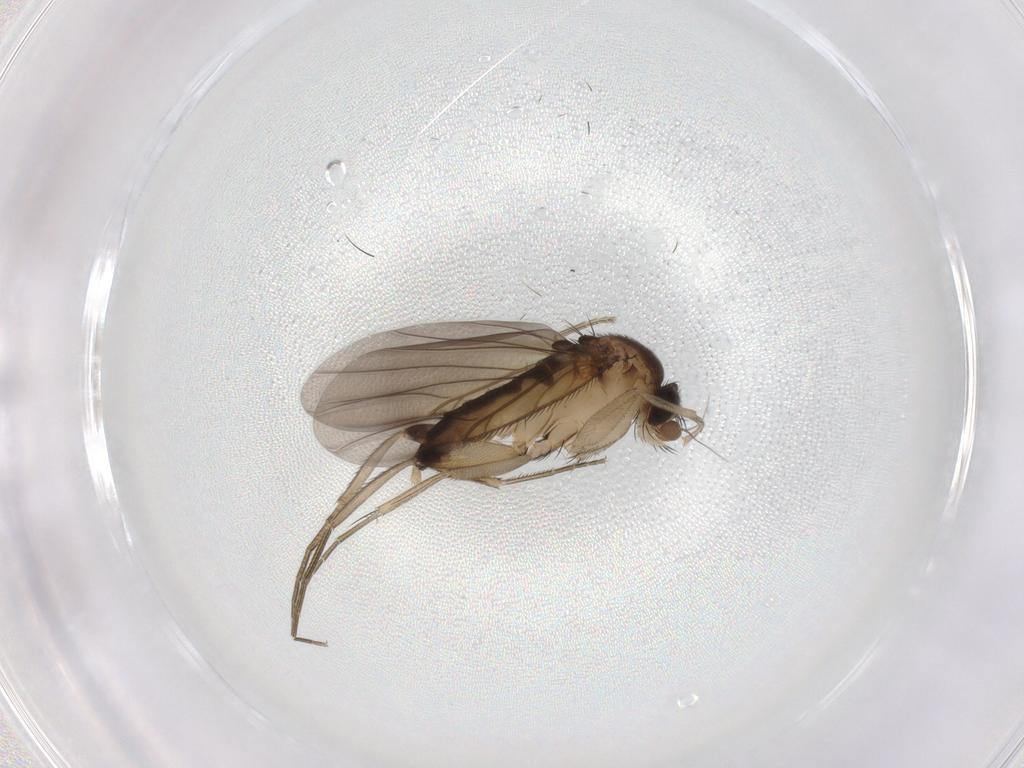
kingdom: Animalia
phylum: Arthropoda
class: Insecta
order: Diptera
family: Phoridae
